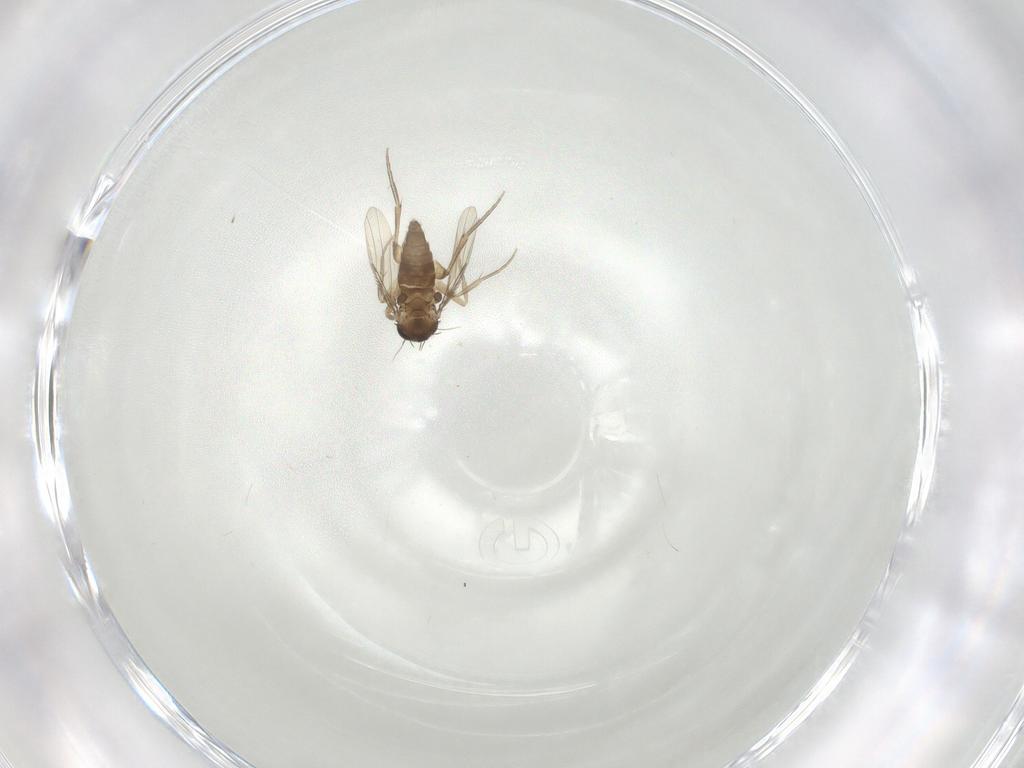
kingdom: Animalia
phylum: Arthropoda
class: Insecta
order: Diptera
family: Phoridae
